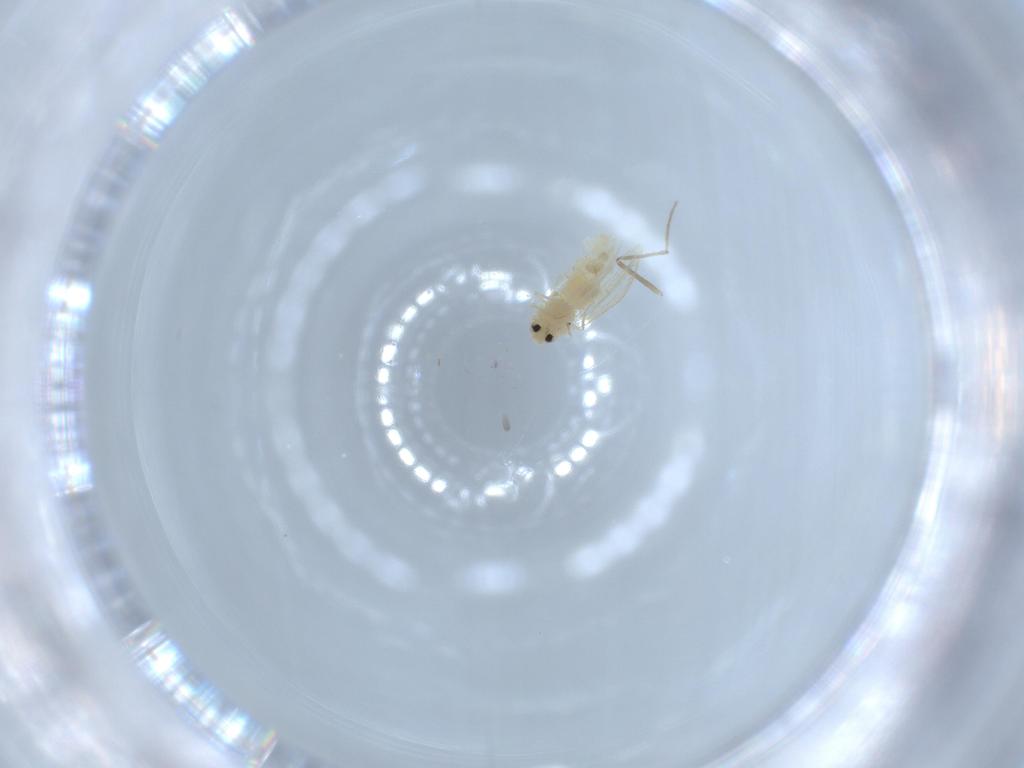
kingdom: Animalia
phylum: Arthropoda
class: Insecta
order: Hemiptera
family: Aleyrodidae
